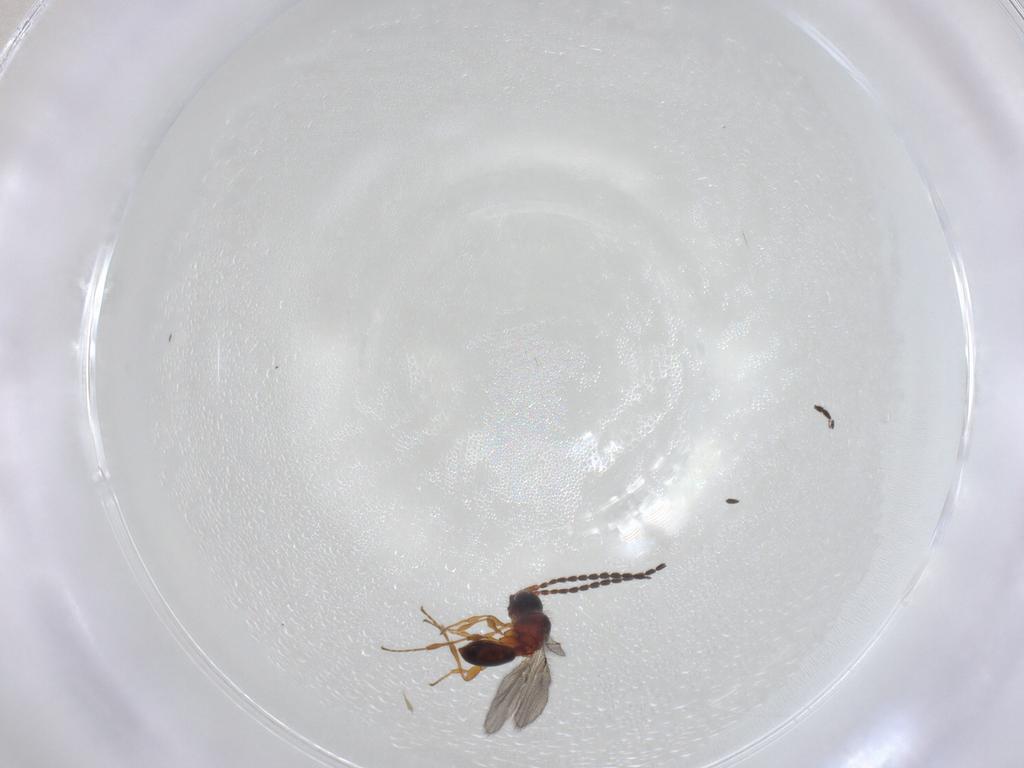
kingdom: Animalia
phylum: Arthropoda
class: Insecta
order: Hymenoptera
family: Diapriidae
